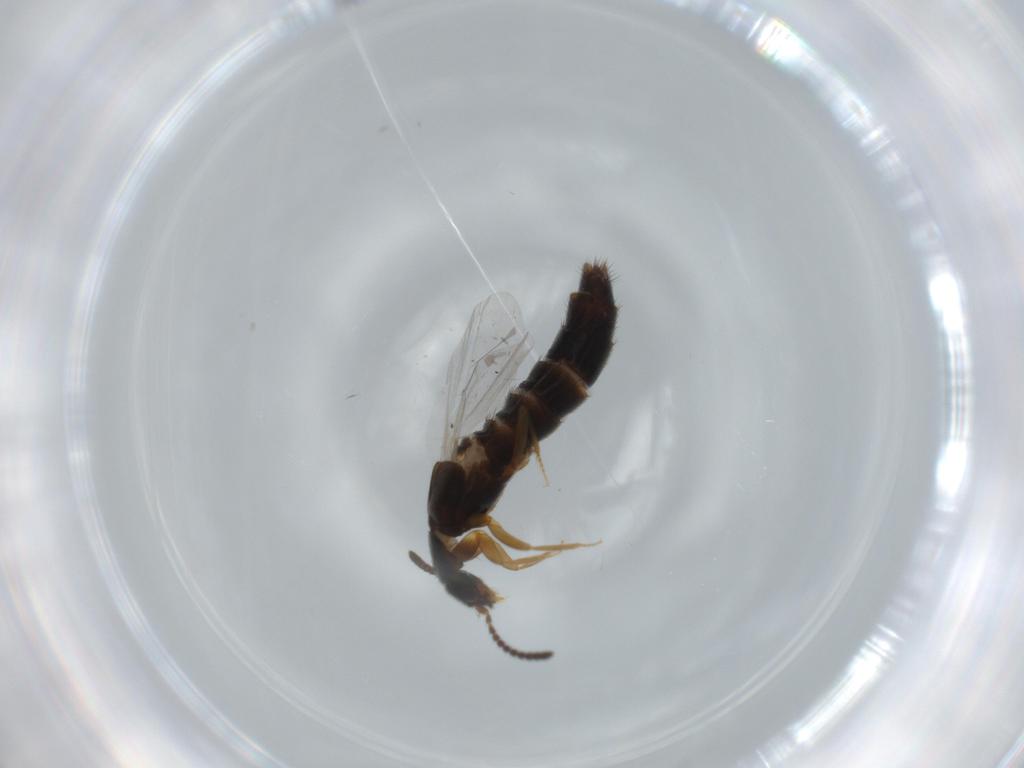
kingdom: Animalia
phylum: Arthropoda
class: Insecta
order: Coleoptera
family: Staphylinidae
